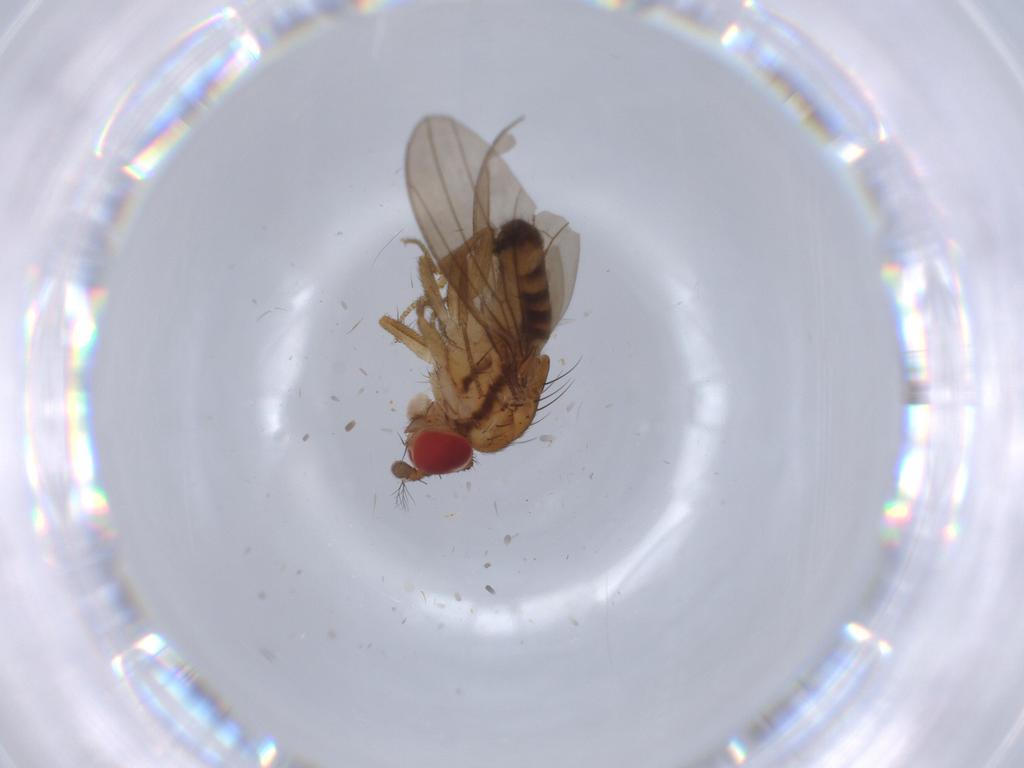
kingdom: Animalia
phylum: Arthropoda
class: Insecta
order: Diptera
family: Drosophilidae
